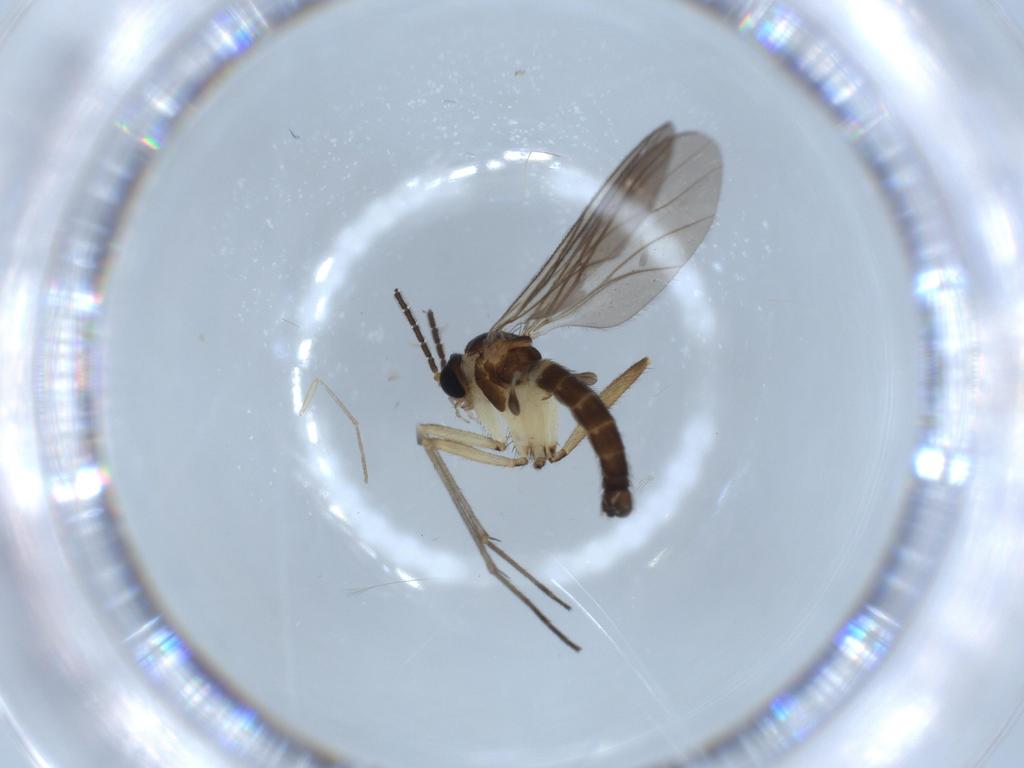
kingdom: Animalia
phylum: Arthropoda
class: Insecta
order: Diptera
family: Sciaridae
